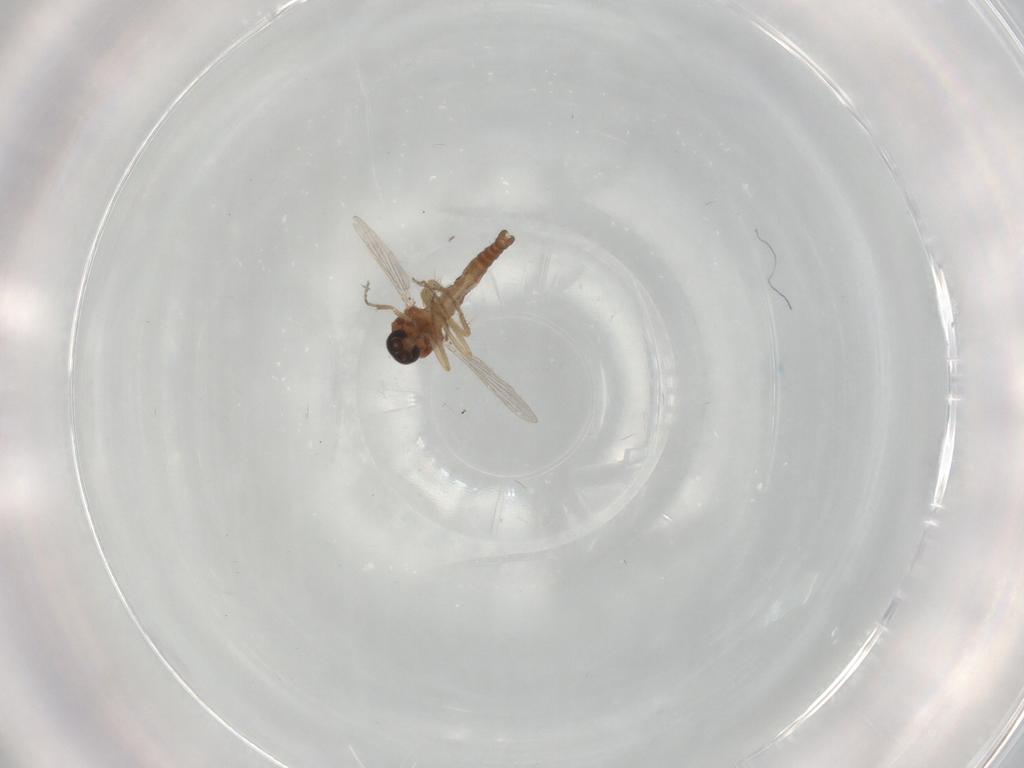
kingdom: Animalia
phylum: Arthropoda
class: Insecta
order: Diptera
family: Ceratopogonidae
